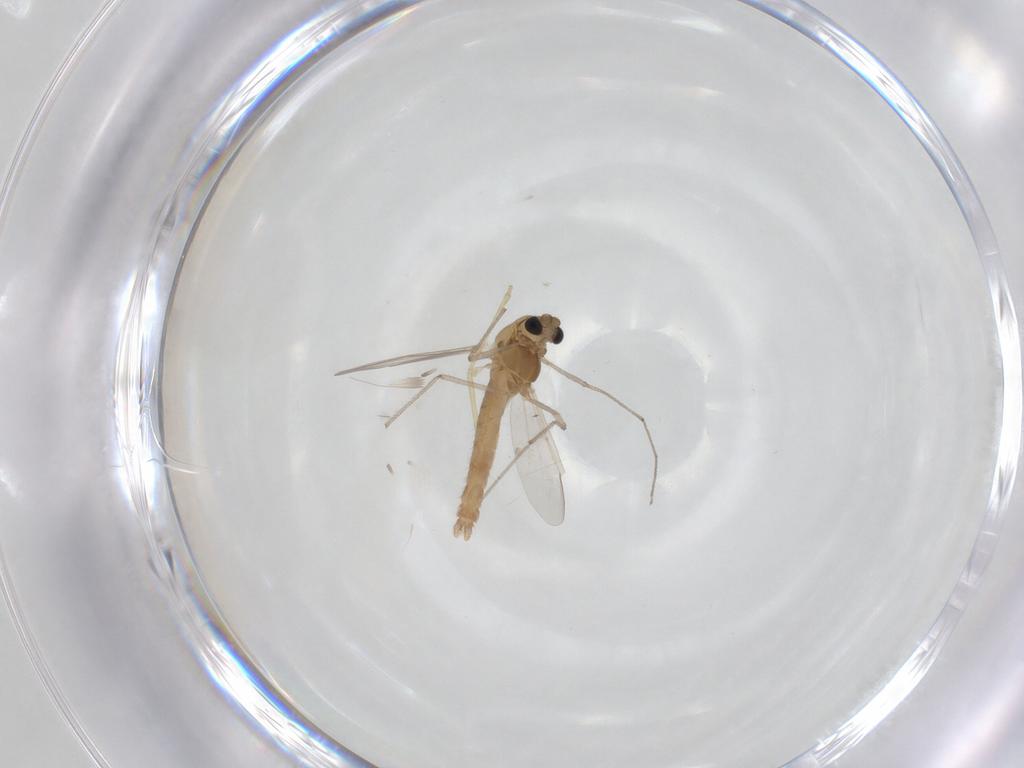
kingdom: Animalia
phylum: Arthropoda
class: Insecta
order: Diptera
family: Chironomidae
